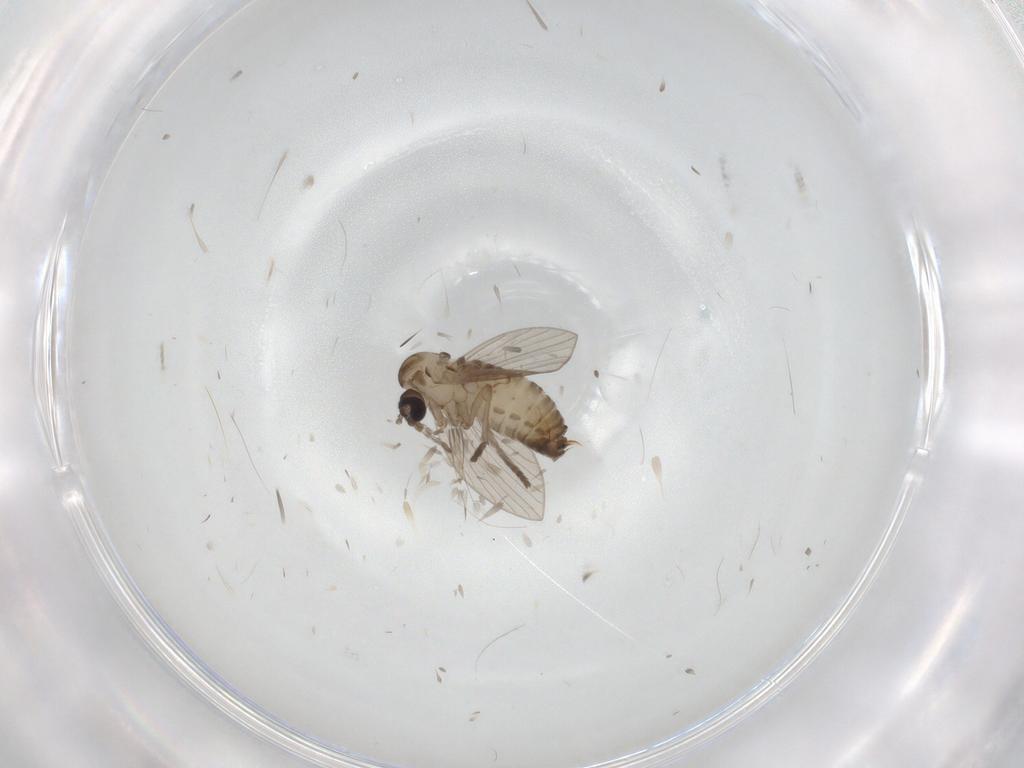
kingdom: Animalia
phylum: Arthropoda
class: Insecta
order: Diptera
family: Psychodidae
